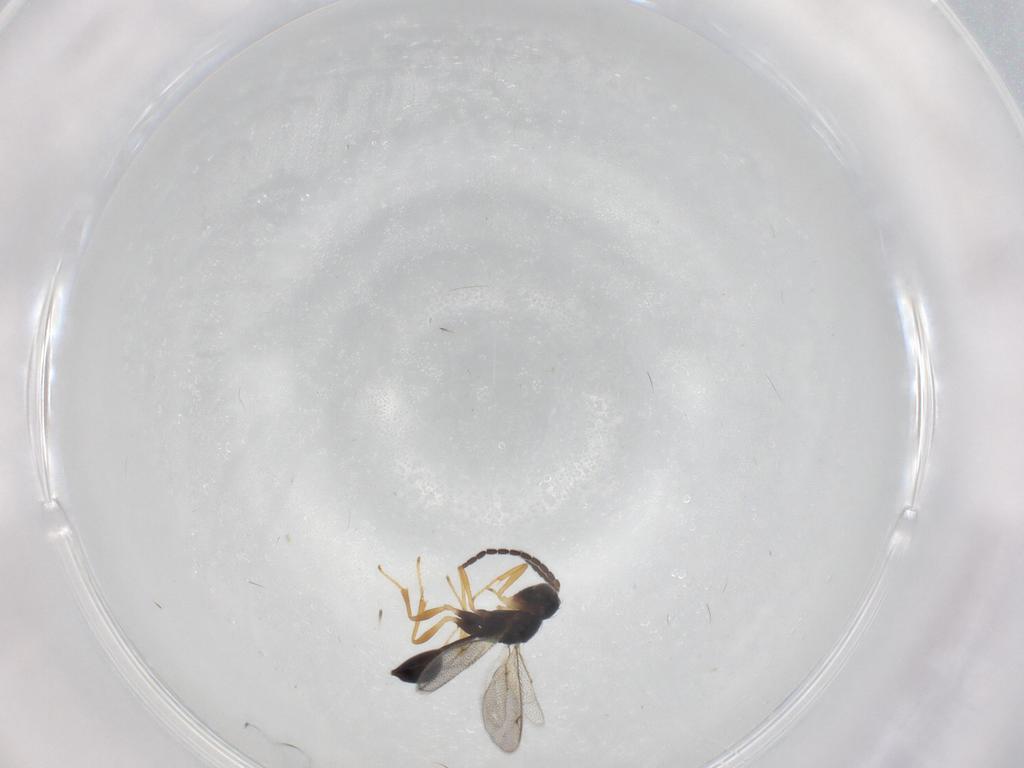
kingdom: Animalia
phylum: Arthropoda
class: Insecta
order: Hymenoptera
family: Diparidae
